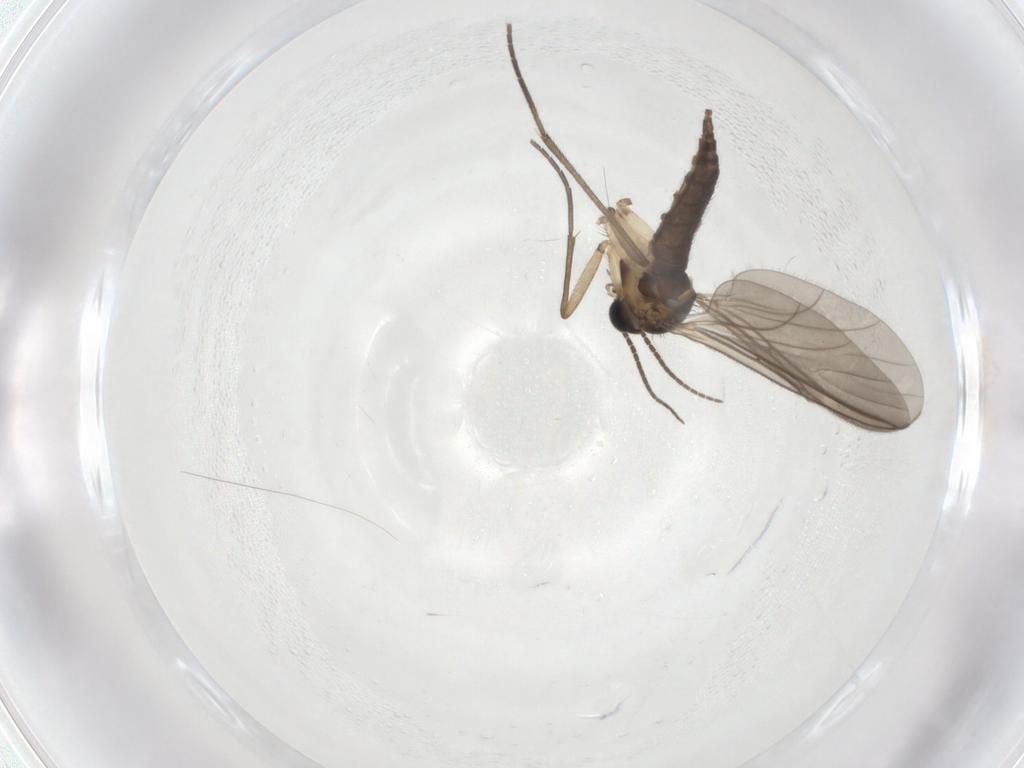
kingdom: Animalia
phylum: Arthropoda
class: Insecta
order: Diptera
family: Sciaridae
